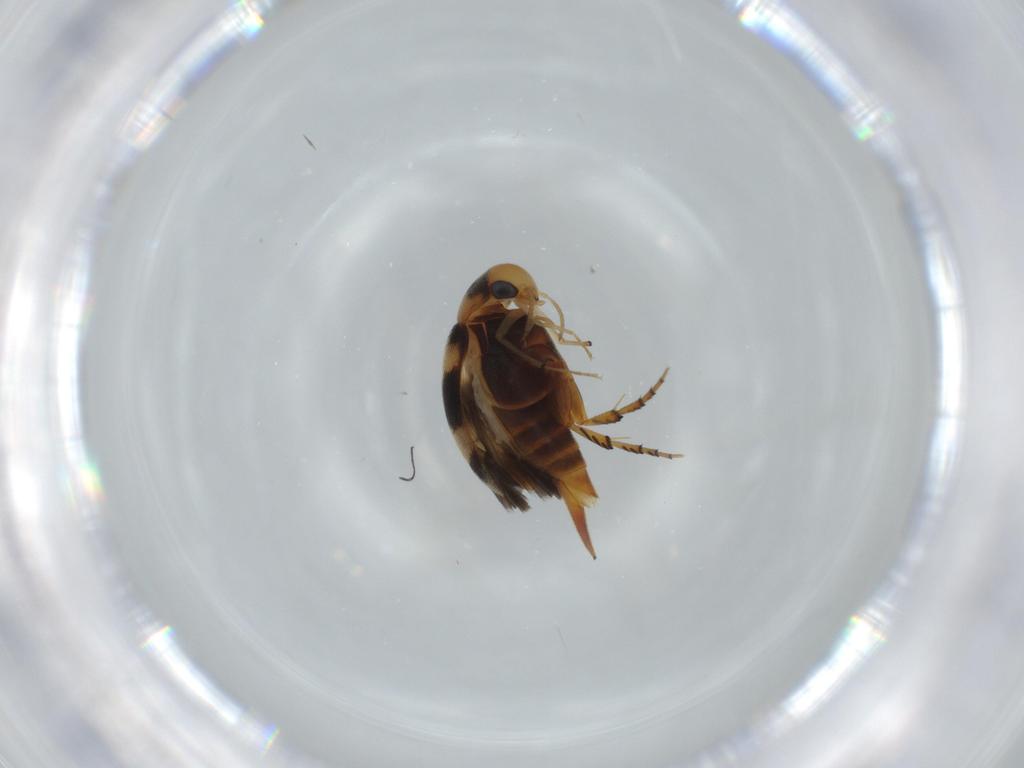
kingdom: Animalia
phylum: Arthropoda
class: Insecta
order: Coleoptera
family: Mordellidae
